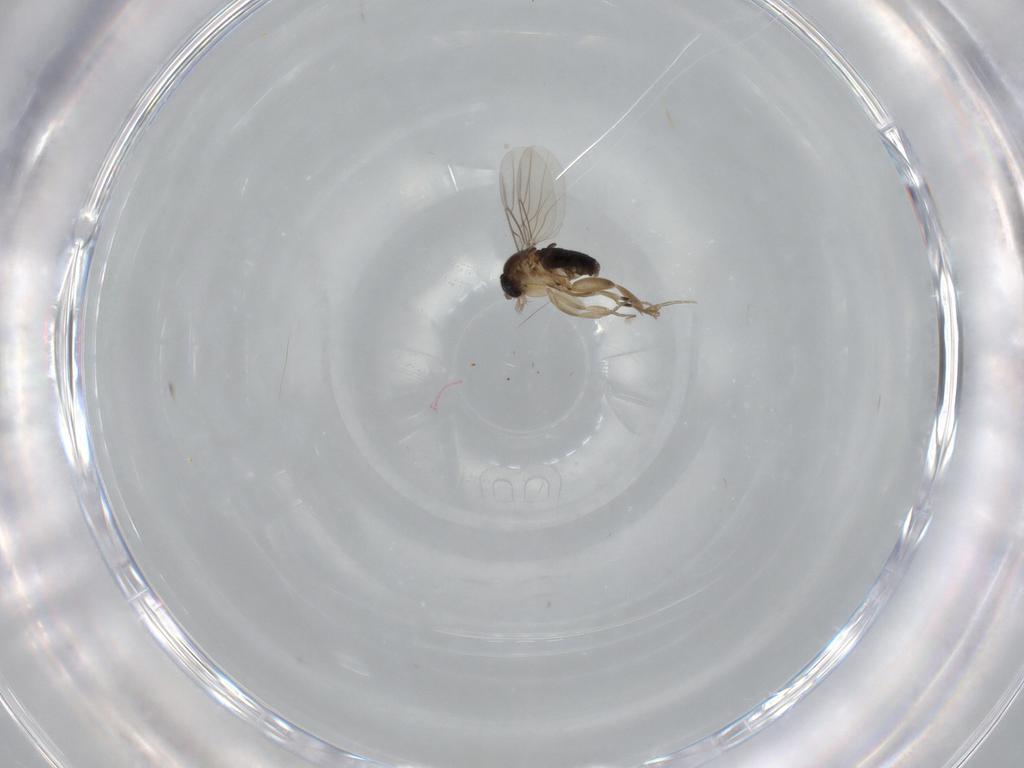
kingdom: Animalia
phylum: Arthropoda
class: Insecta
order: Diptera
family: Phoridae
